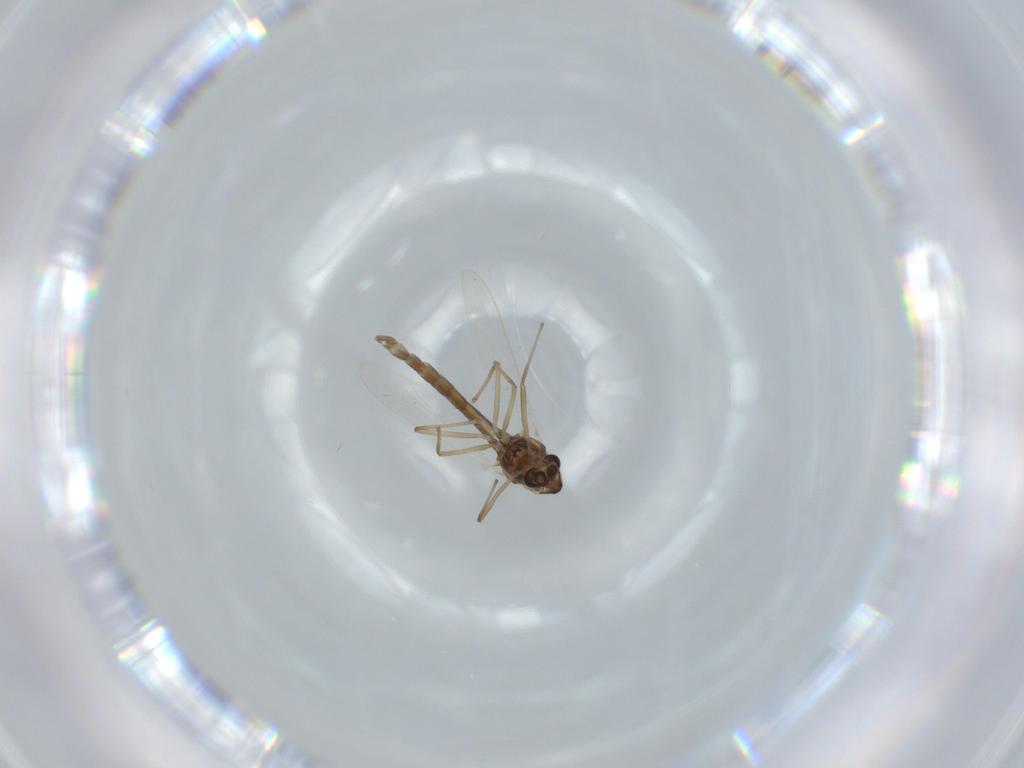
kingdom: Animalia
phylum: Arthropoda
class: Insecta
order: Diptera
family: Chironomidae
